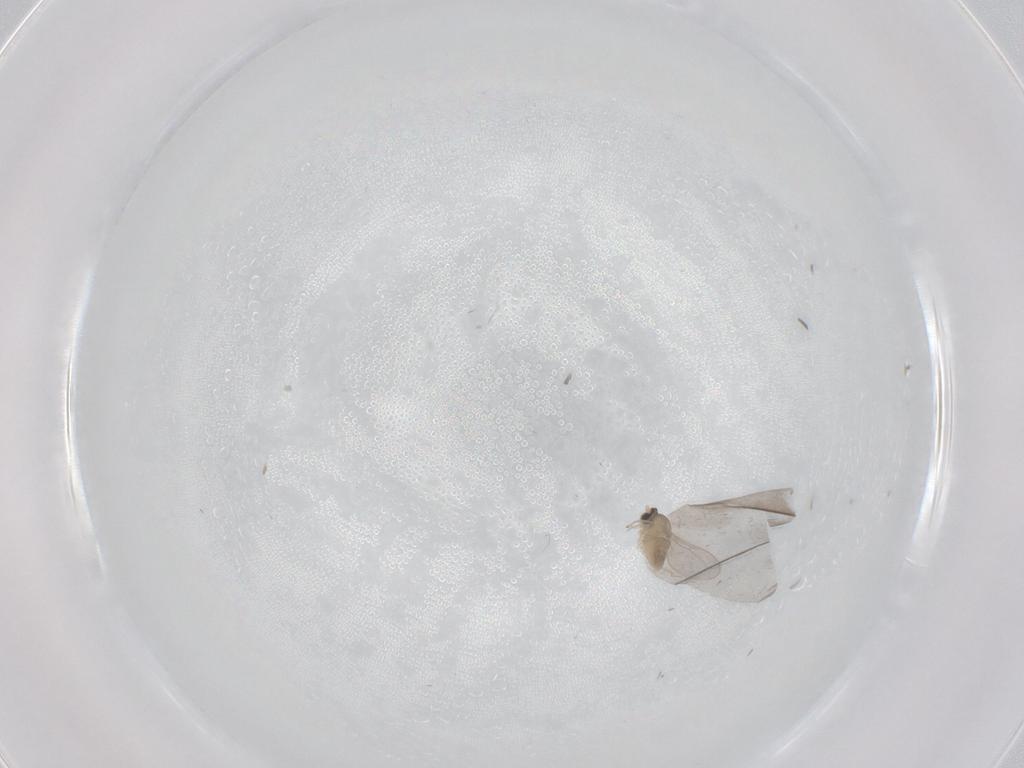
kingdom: Animalia
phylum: Arthropoda
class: Insecta
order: Diptera
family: Cecidomyiidae
